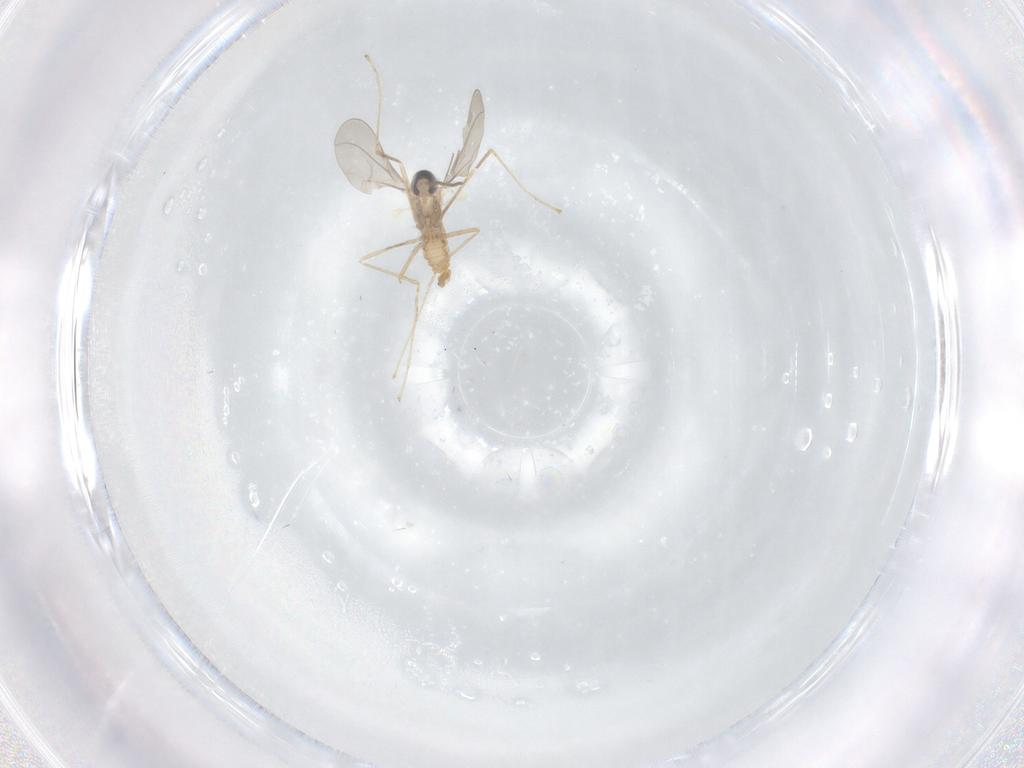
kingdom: Animalia
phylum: Arthropoda
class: Insecta
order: Diptera
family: Cecidomyiidae
